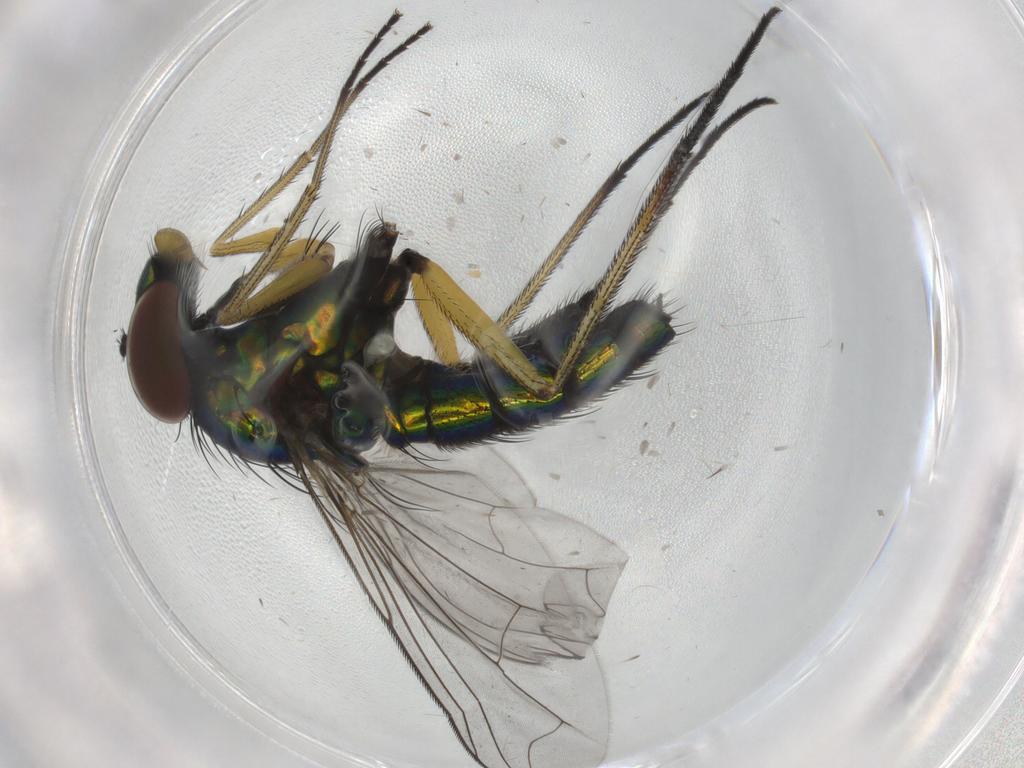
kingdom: Animalia
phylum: Arthropoda
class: Insecta
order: Diptera
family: Dolichopodidae
